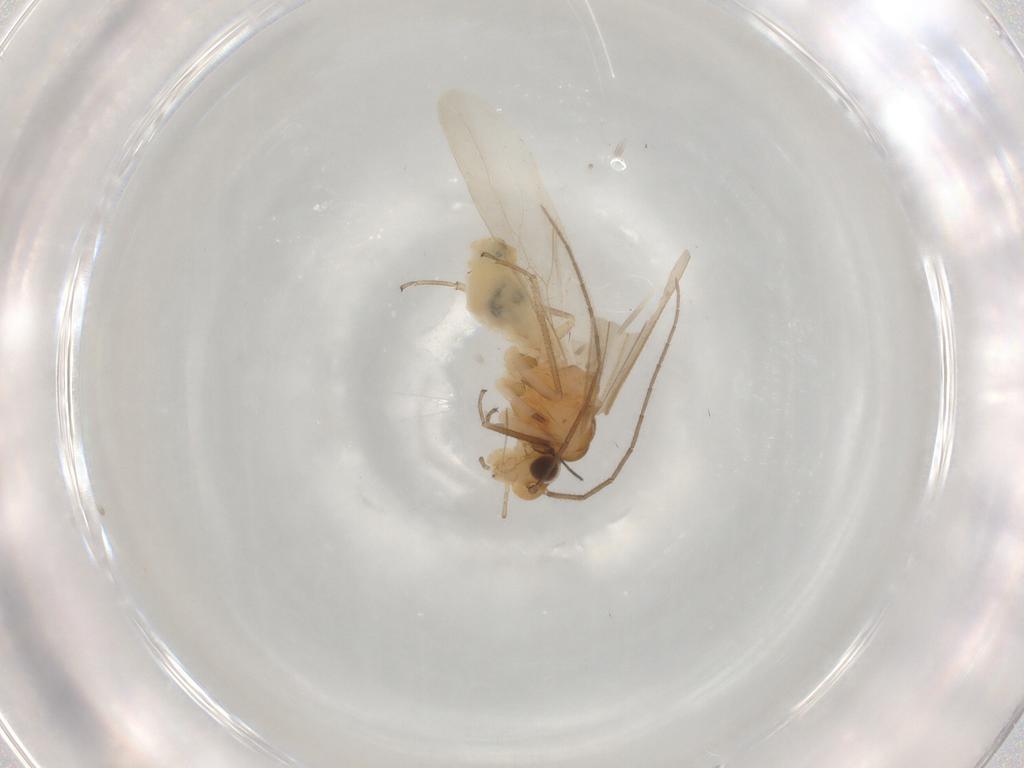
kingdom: Animalia
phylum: Arthropoda
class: Insecta
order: Psocodea
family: Caeciliusidae
